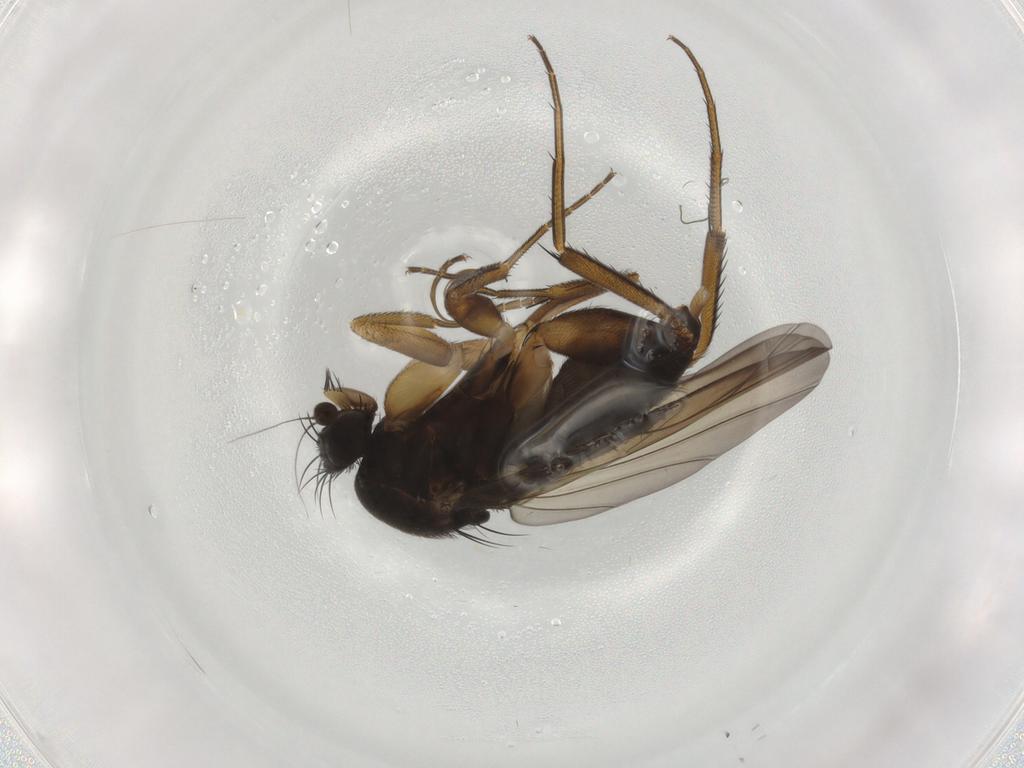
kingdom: Animalia
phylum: Arthropoda
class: Insecta
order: Diptera
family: Phoridae
